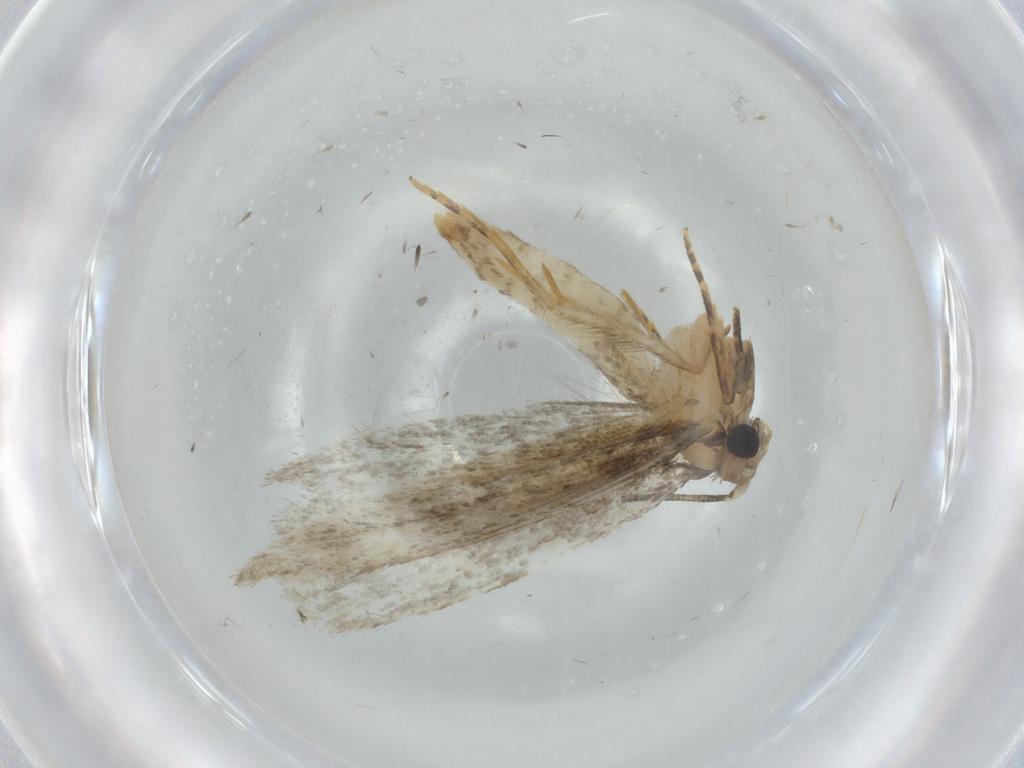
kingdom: Animalia
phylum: Arthropoda
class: Insecta
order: Lepidoptera
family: Tineidae
